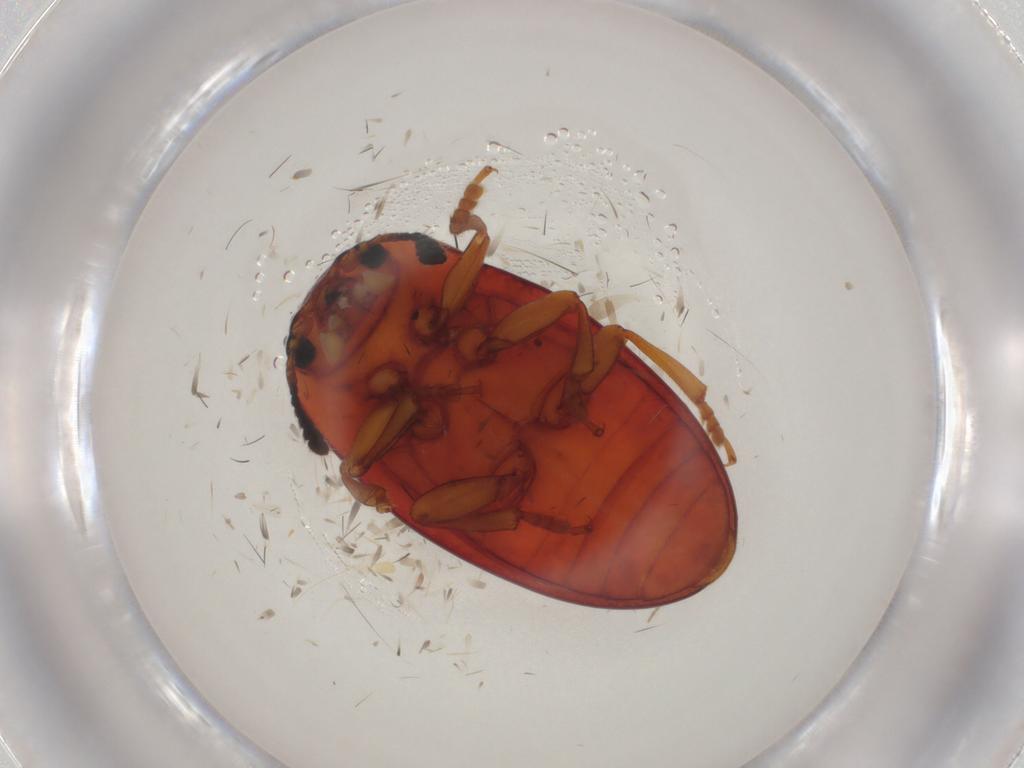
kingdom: Animalia
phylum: Arthropoda
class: Insecta
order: Coleoptera
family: Erotylidae
